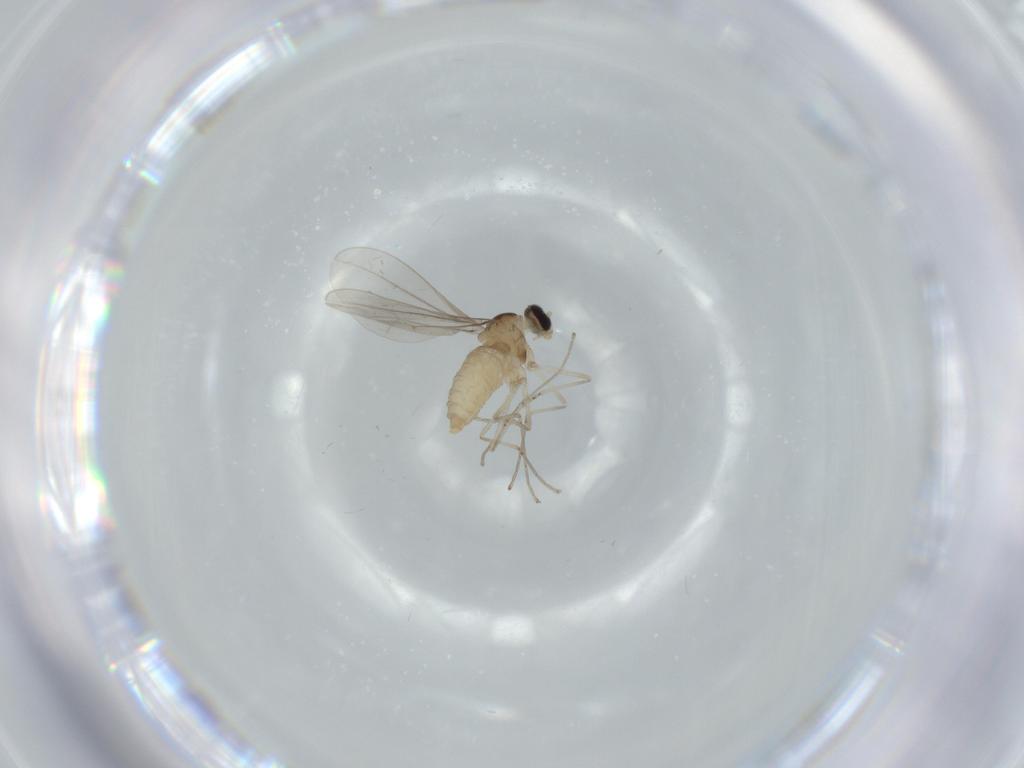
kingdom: Animalia
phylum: Arthropoda
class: Insecta
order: Diptera
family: Cecidomyiidae
